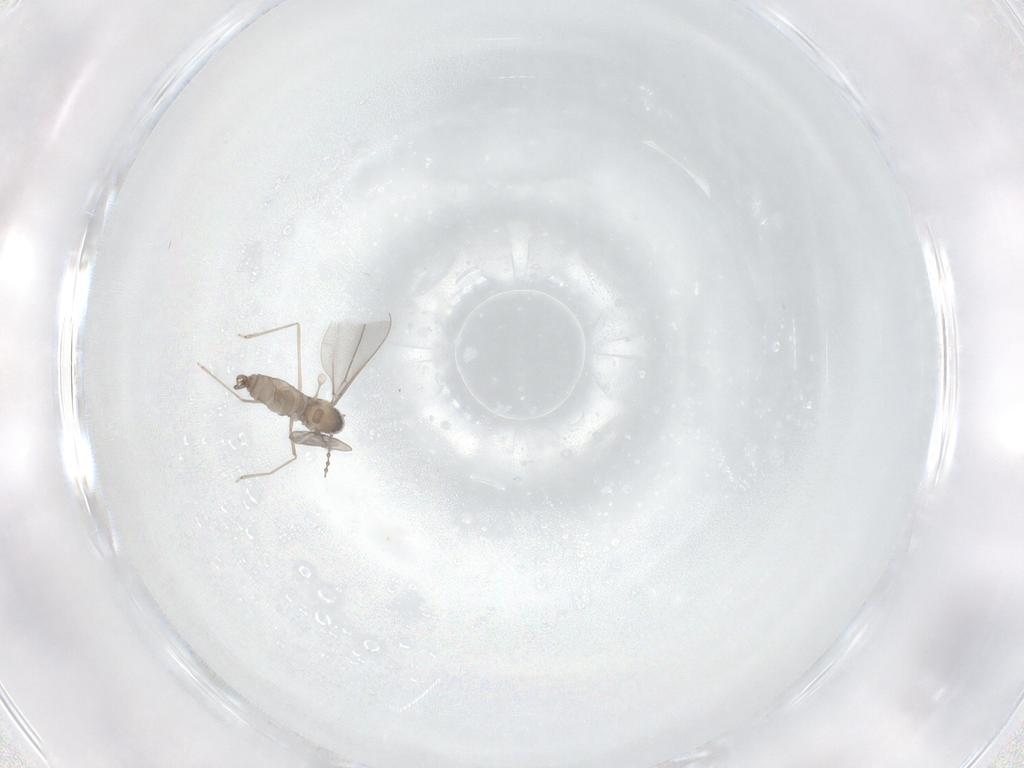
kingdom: Animalia
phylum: Arthropoda
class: Insecta
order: Diptera
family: Cecidomyiidae
